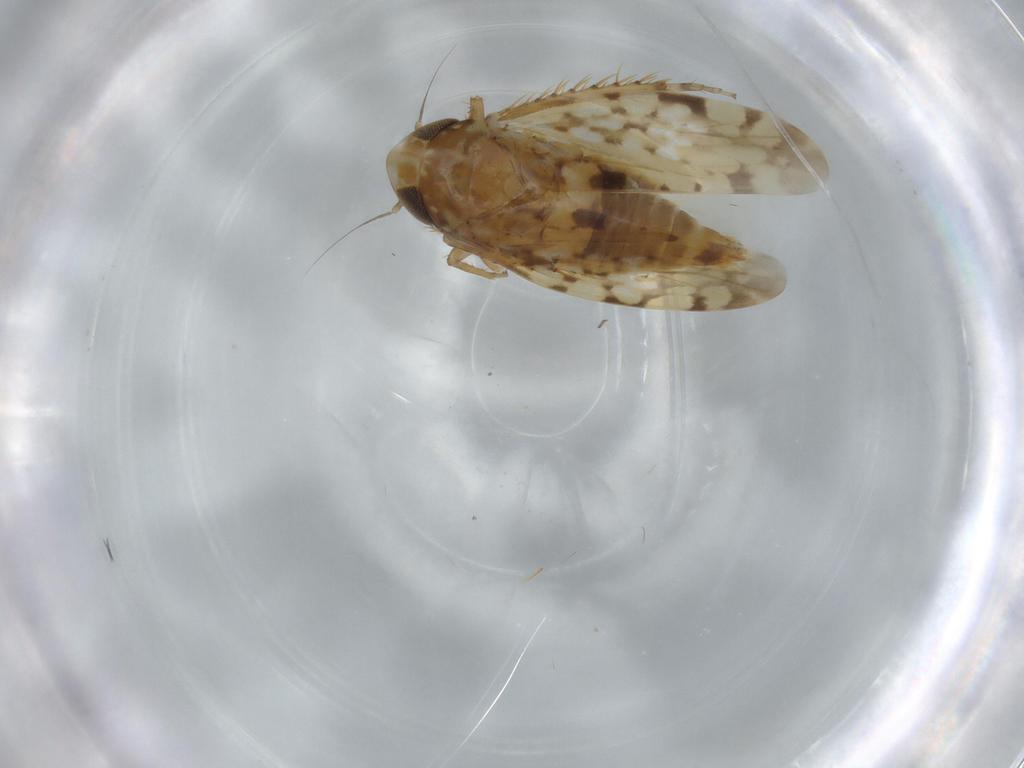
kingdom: Animalia
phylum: Arthropoda
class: Insecta
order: Hemiptera
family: Cicadellidae
